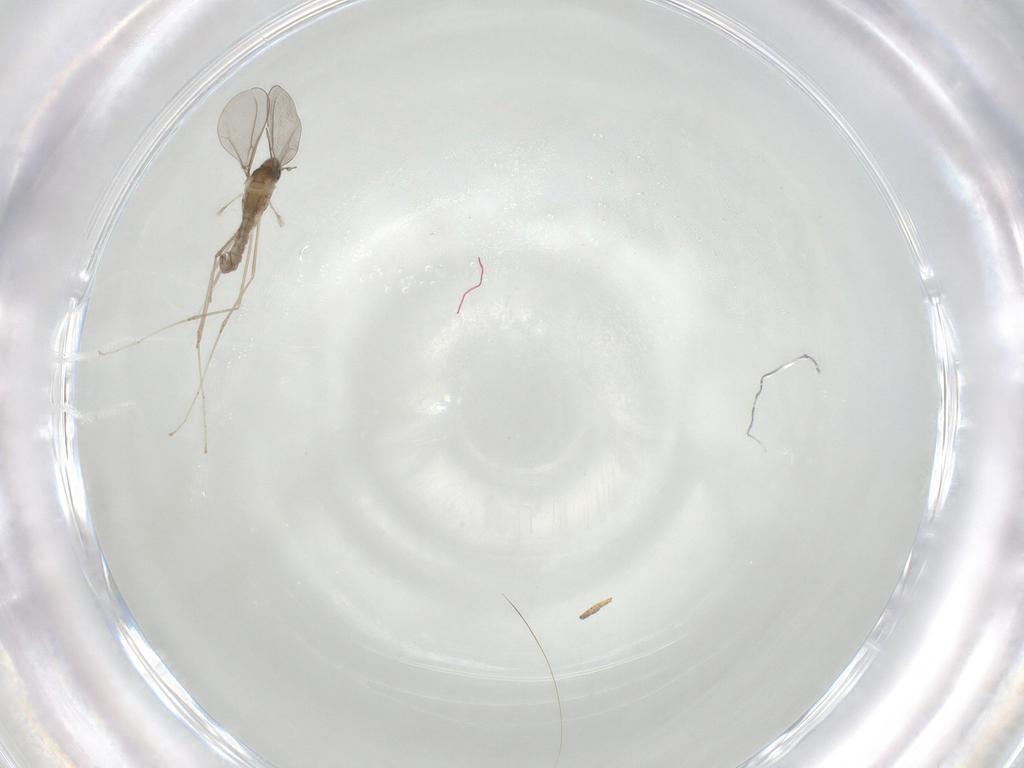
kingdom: Animalia
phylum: Arthropoda
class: Insecta
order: Diptera
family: Cecidomyiidae
